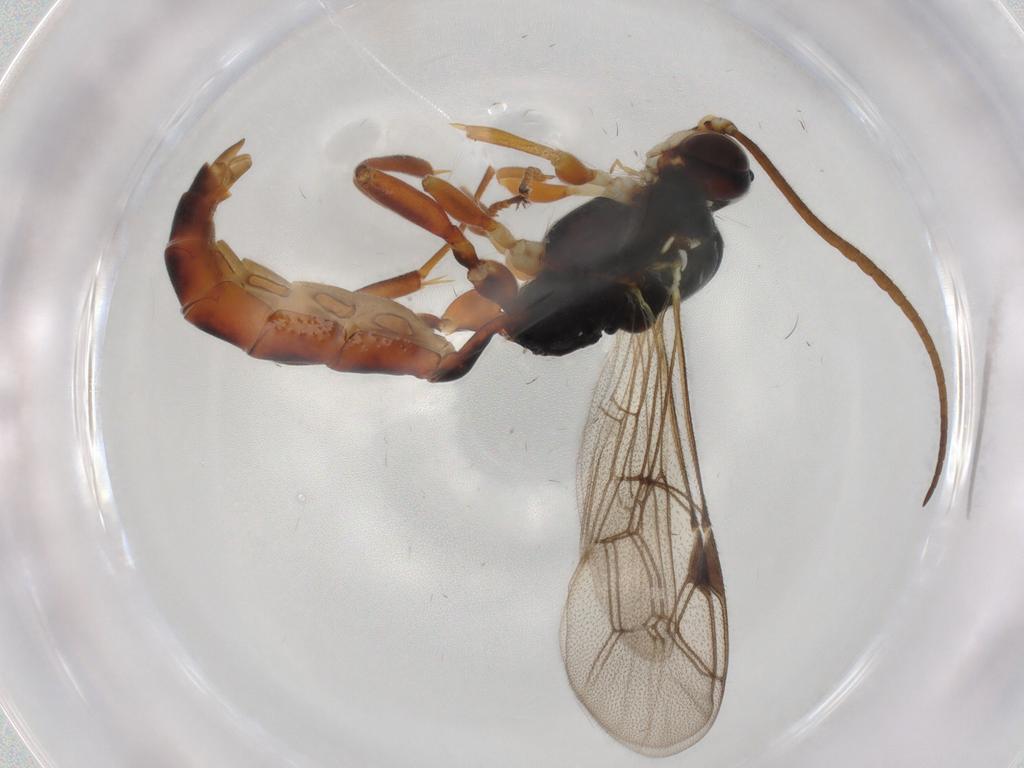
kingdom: Animalia
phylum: Arthropoda
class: Insecta
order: Hymenoptera
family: Ichneumonidae
